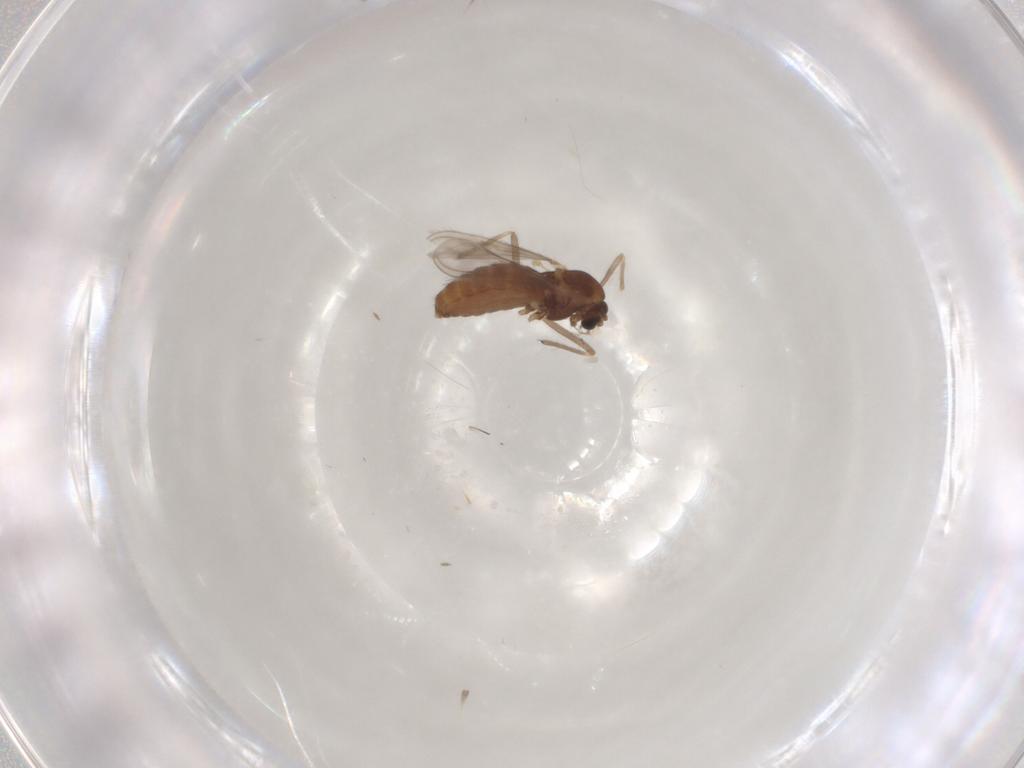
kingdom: Animalia
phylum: Arthropoda
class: Insecta
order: Diptera
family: Chironomidae
